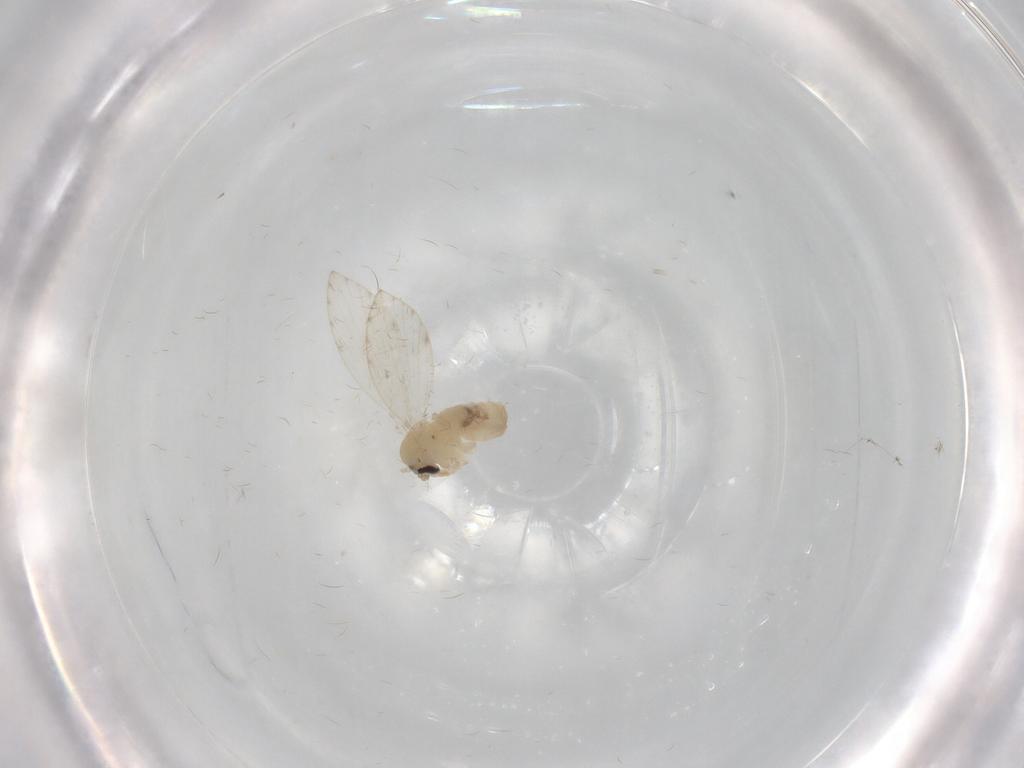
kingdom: Animalia
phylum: Arthropoda
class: Insecta
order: Diptera
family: Psychodidae
